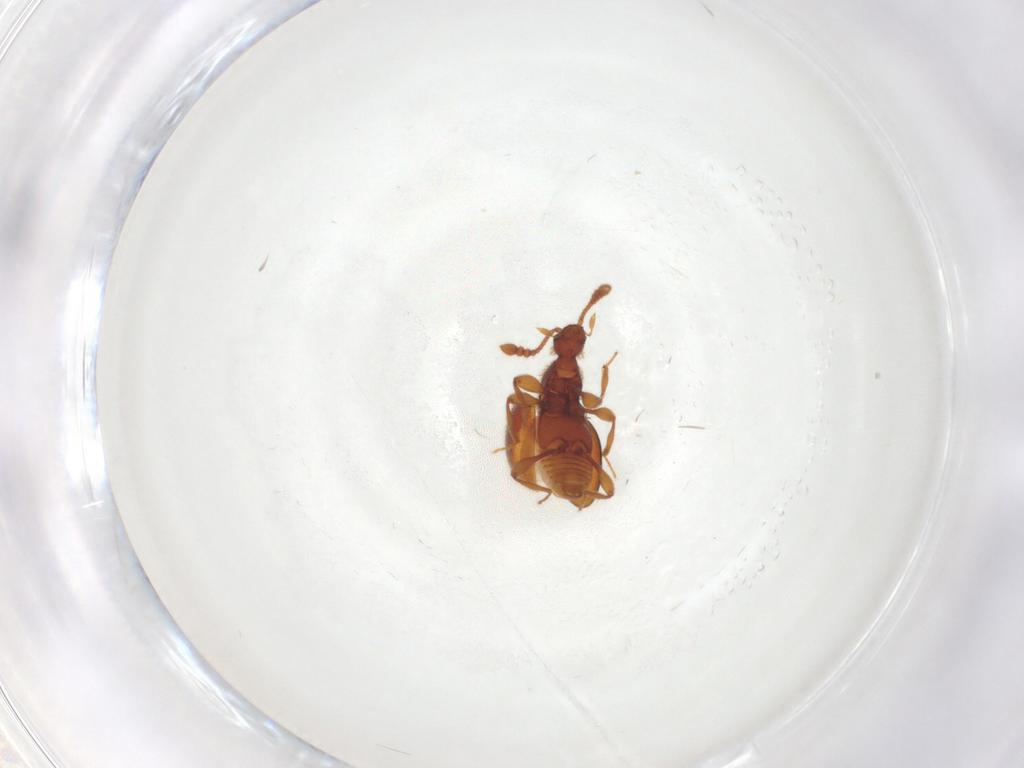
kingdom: Animalia
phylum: Arthropoda
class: Insecta
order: Coleoptera
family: Staphylinidae
